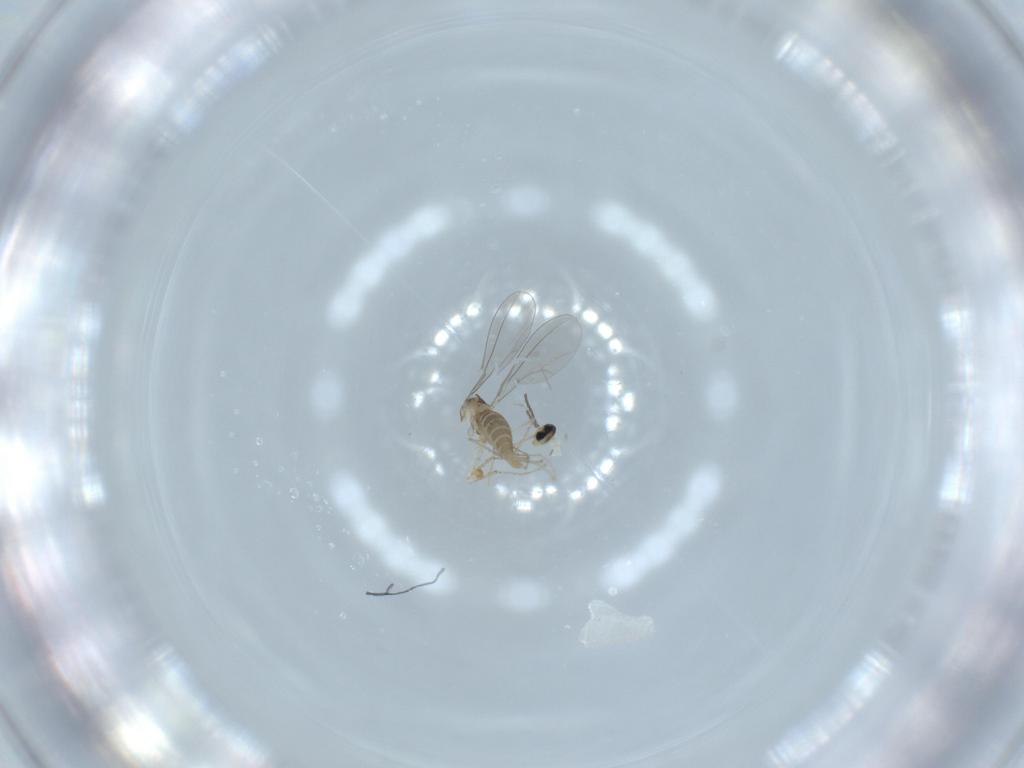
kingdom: Animalia
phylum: Arthropoda
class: Insecta
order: Diptera
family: Cecidomyiidae
